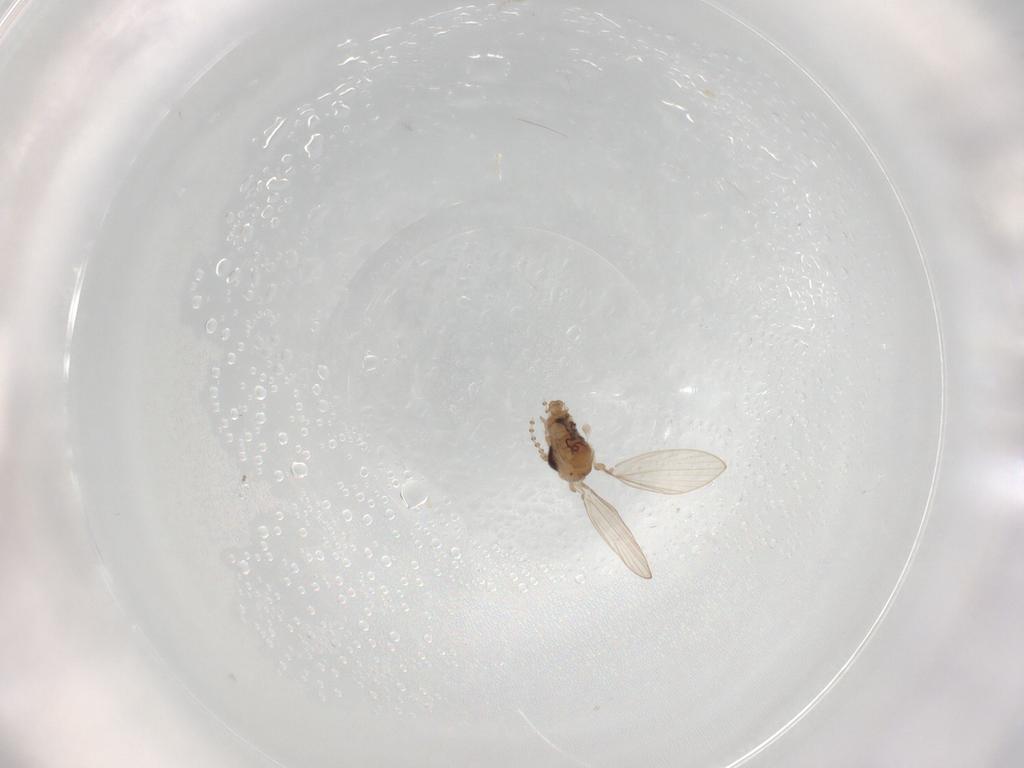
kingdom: Animalia
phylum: Arthropoda
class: Insecta
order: Diptera
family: Psychodidae
